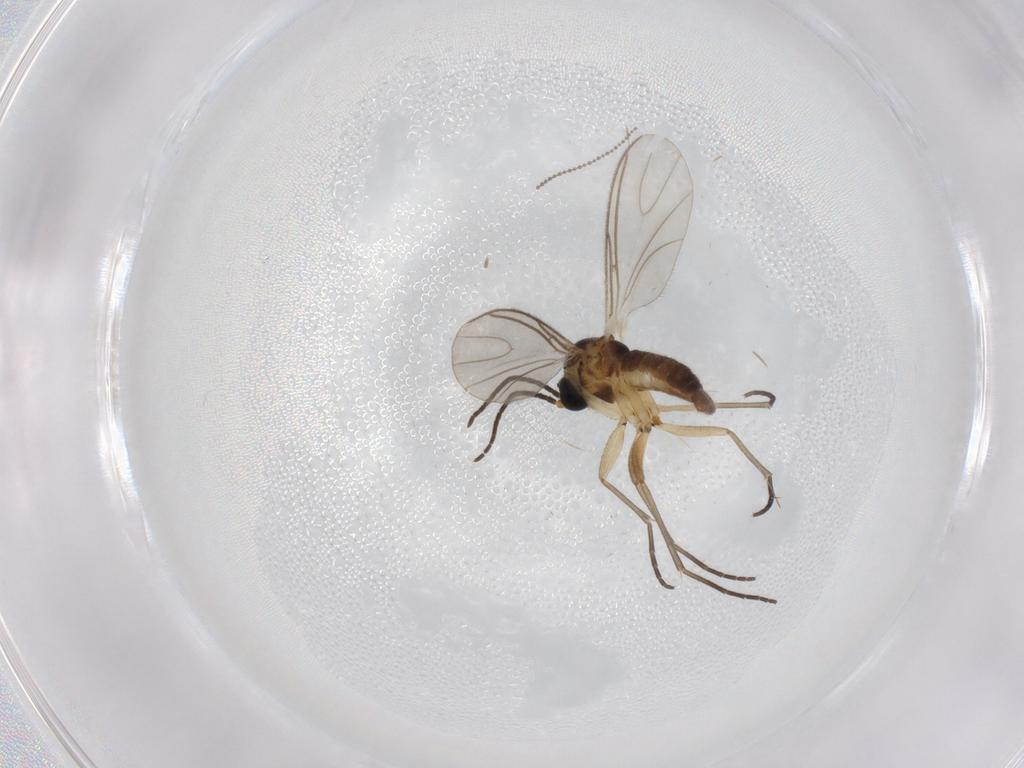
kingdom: Animalia
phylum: Arthropoda
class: Insecta
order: Diptera
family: Sciaridae
